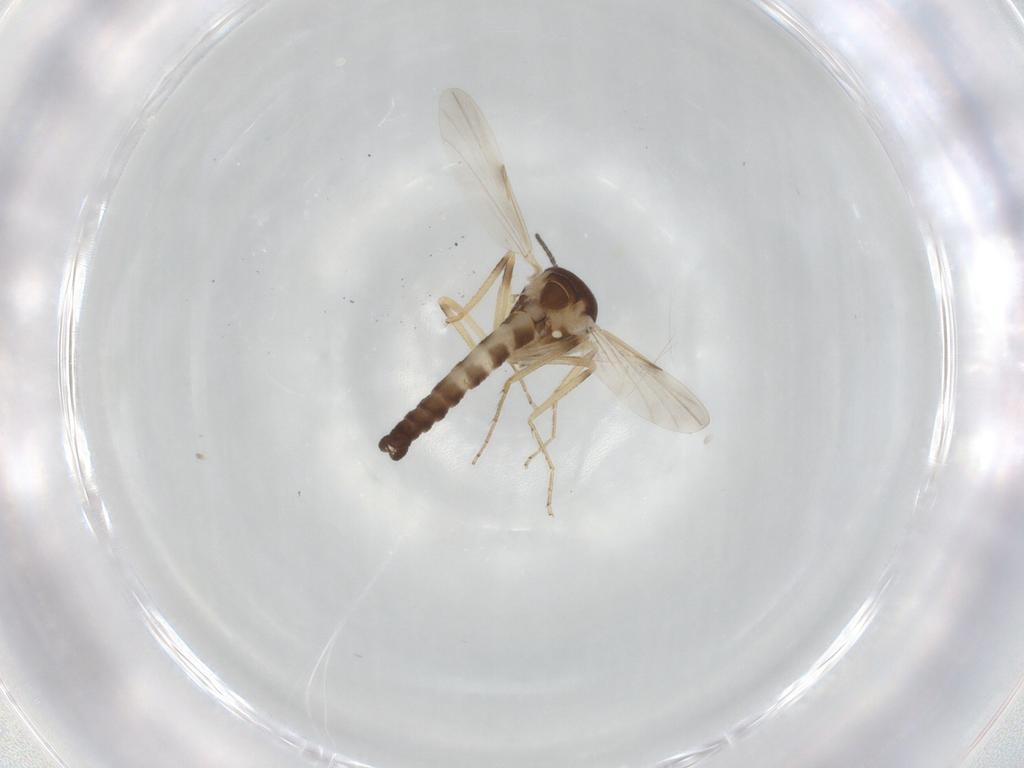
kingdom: Animalia
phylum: Arthropoda
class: Insecta
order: Diptera
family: Ceratopogonidae
